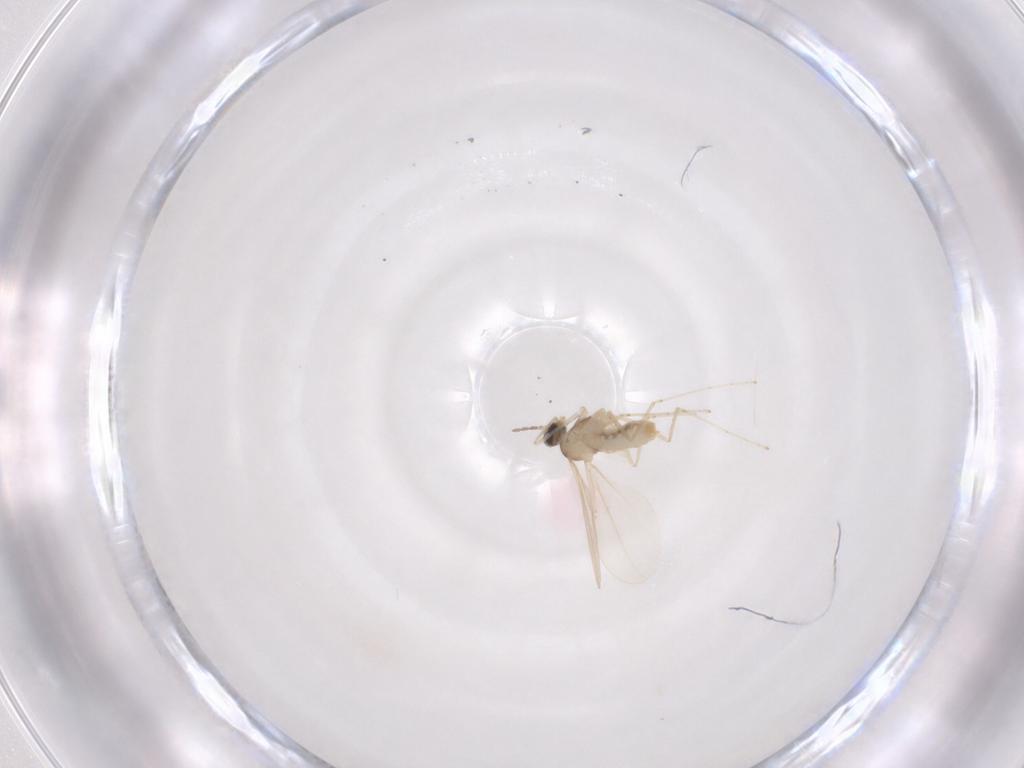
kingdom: Animalia
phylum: Arthropoda
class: Insecta
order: Diptera
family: Cecidomyiidae
